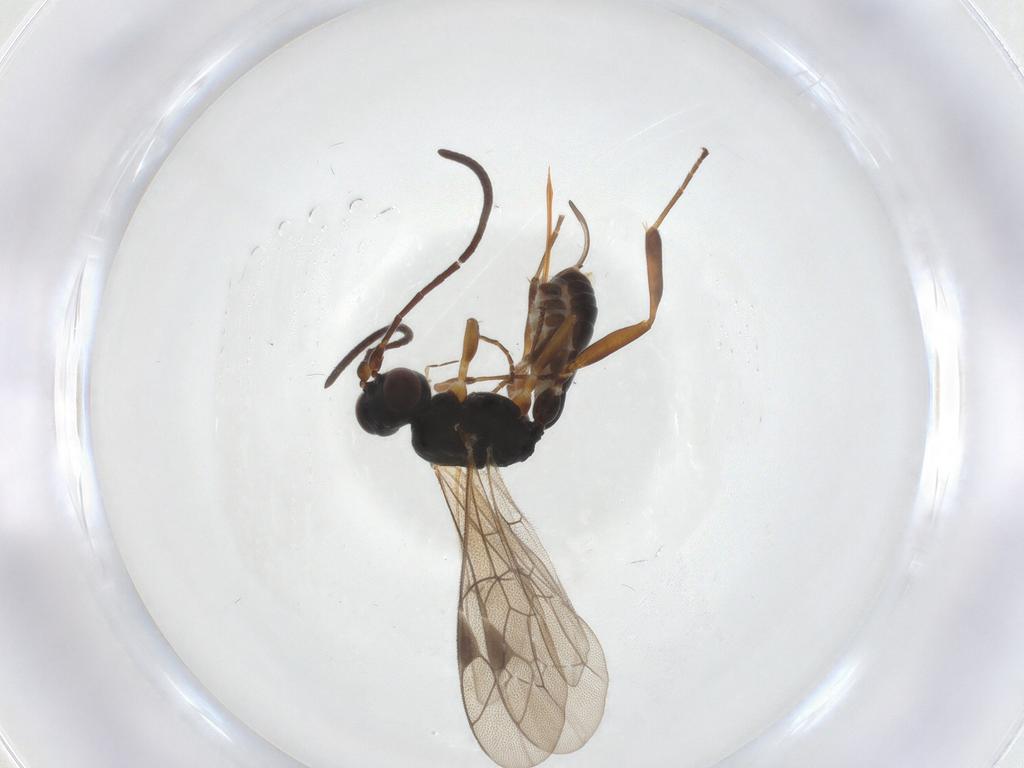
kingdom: Animalia
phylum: Arthropoda
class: Insecta
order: Hymenoptera
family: Ichneumonidae
